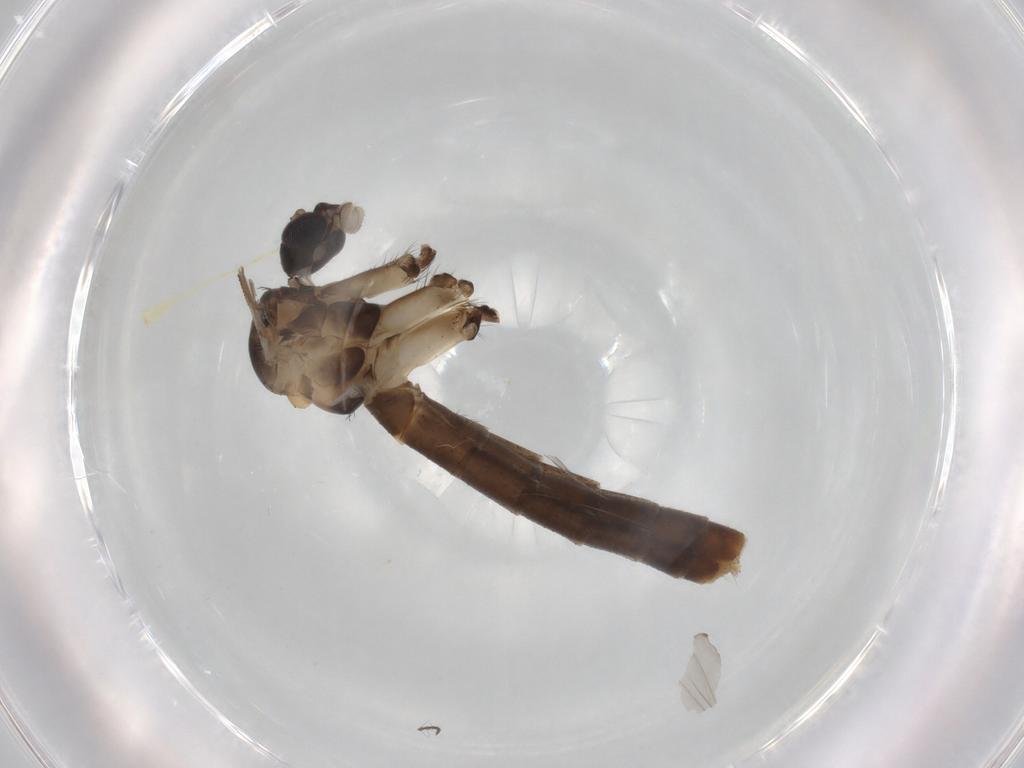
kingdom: Animalia
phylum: Arthropoda
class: Insecta
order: Diptera
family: Mycetophilidae
